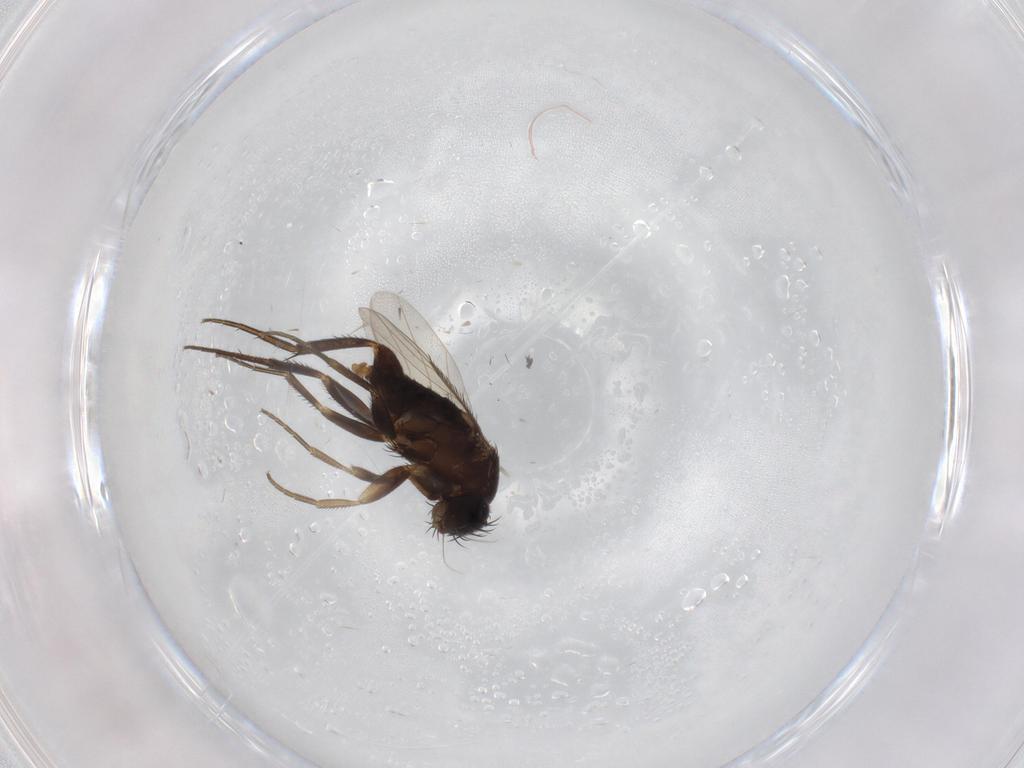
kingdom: Animalia
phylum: Arthropoda
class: Insecta
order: Diptera
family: Phoridae
